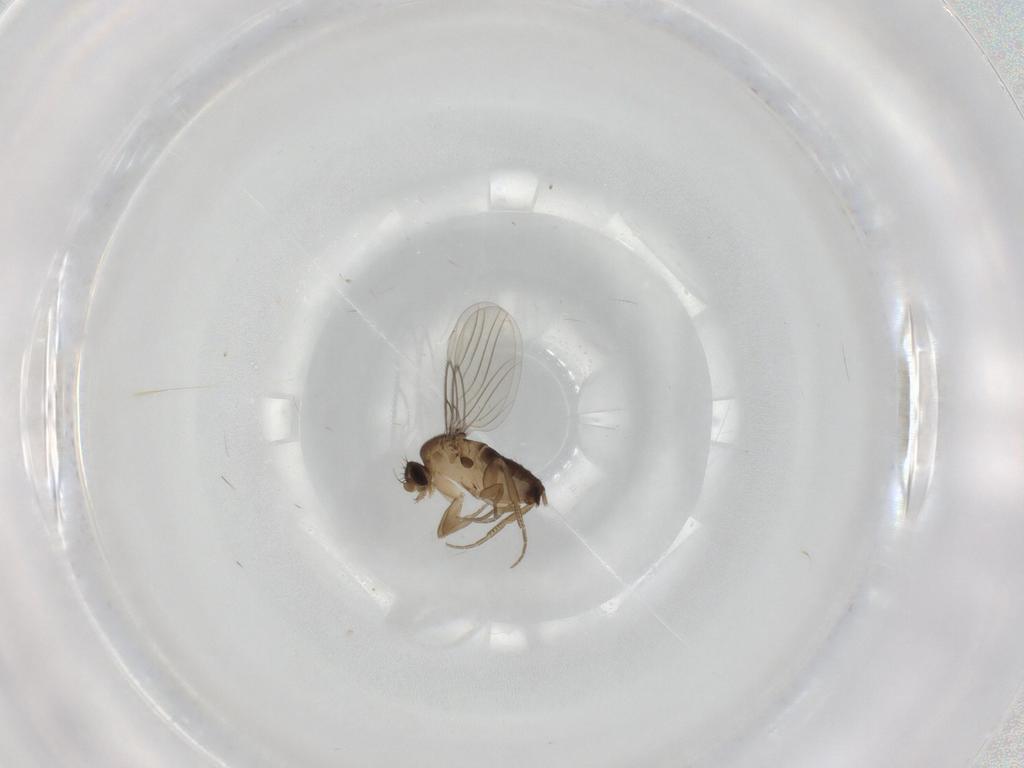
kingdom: Animalia
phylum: Arthropoda
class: Insecta
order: Diptera
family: Phoridae
